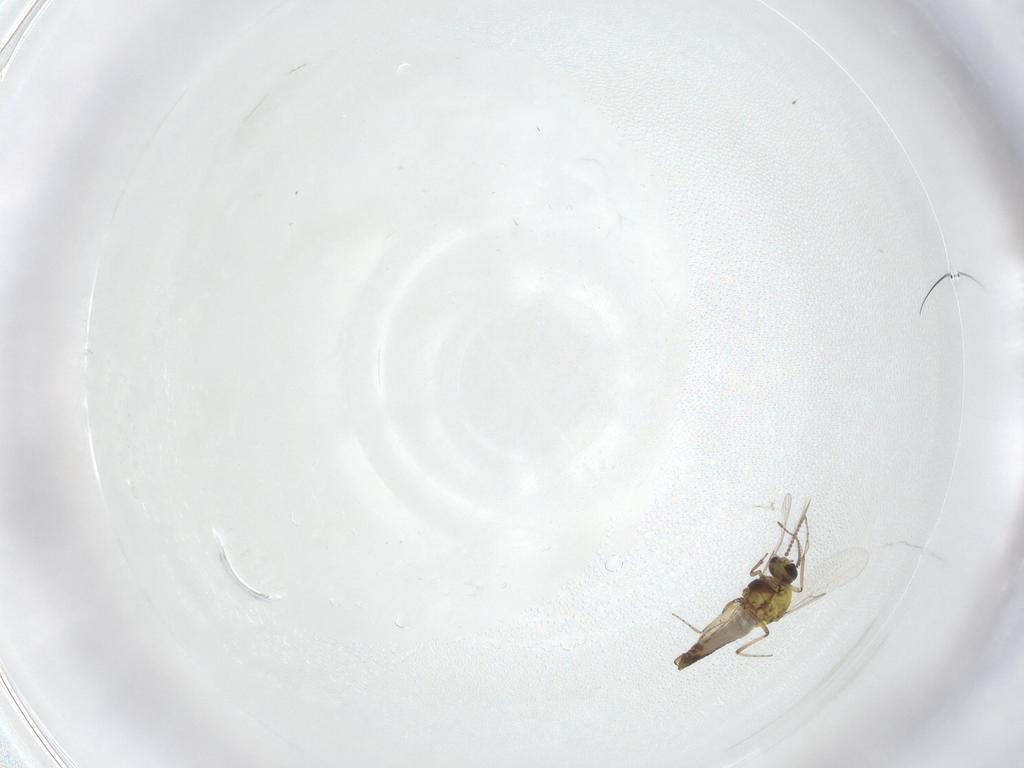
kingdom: Animalia
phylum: Arthropoda
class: Insecta
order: Diptera
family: Ceratopogonidae
